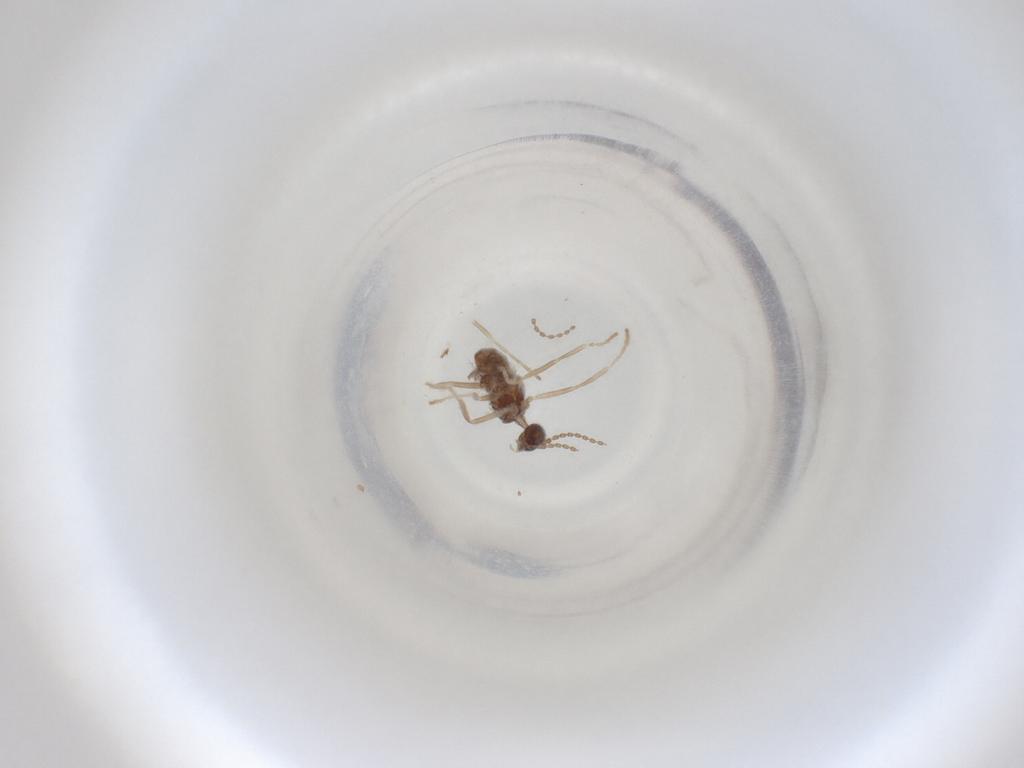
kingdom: Animalia
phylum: Arthropoda
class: Insecta
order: Diptera
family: Cecidomyiidae
